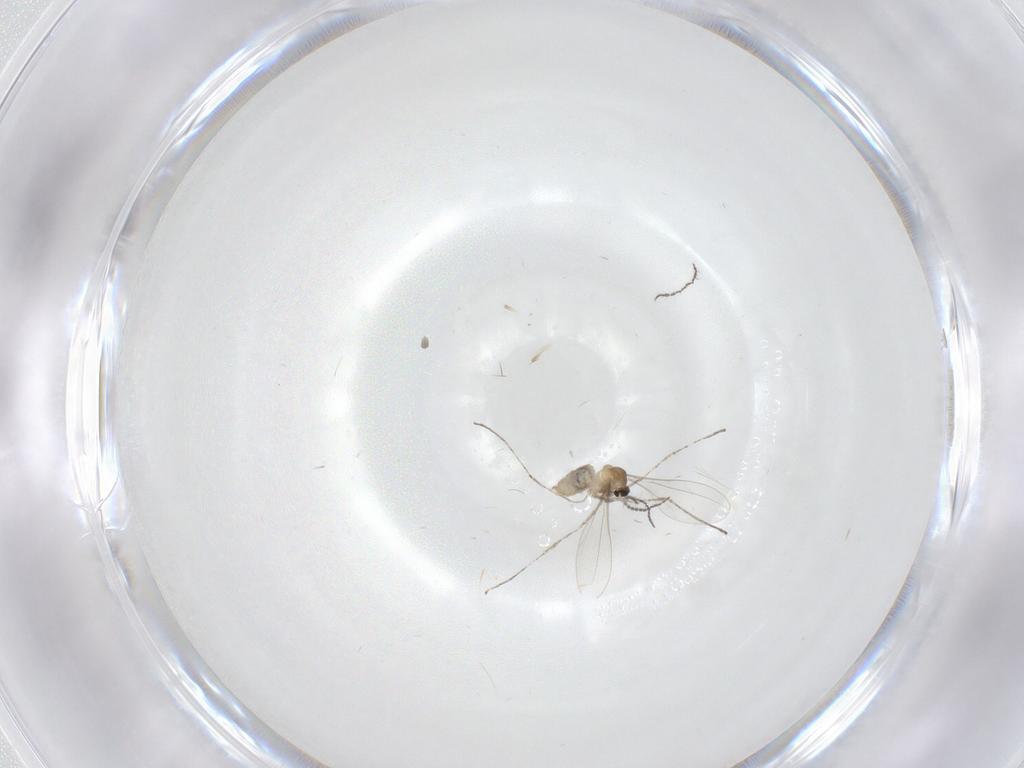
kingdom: Animalia
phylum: Arthropoda
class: Insecta
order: Diptera
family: Cecidomyiidae
